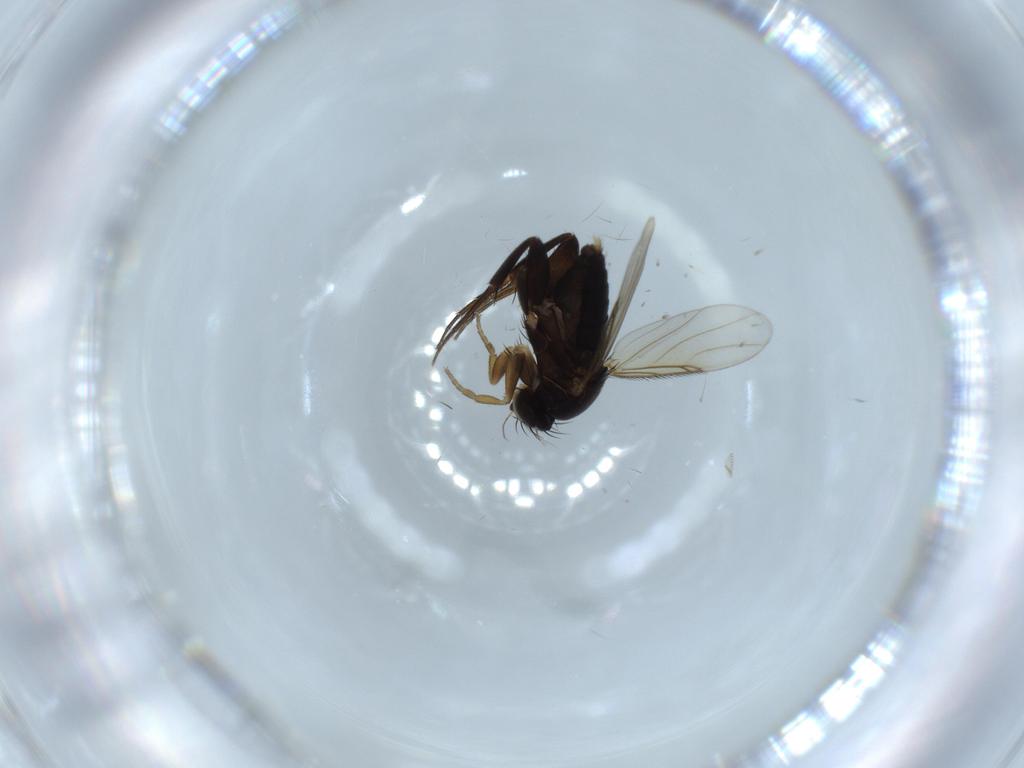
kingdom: Animalia
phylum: Arthropoda
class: Insecta
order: Diptera
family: Phoridae
